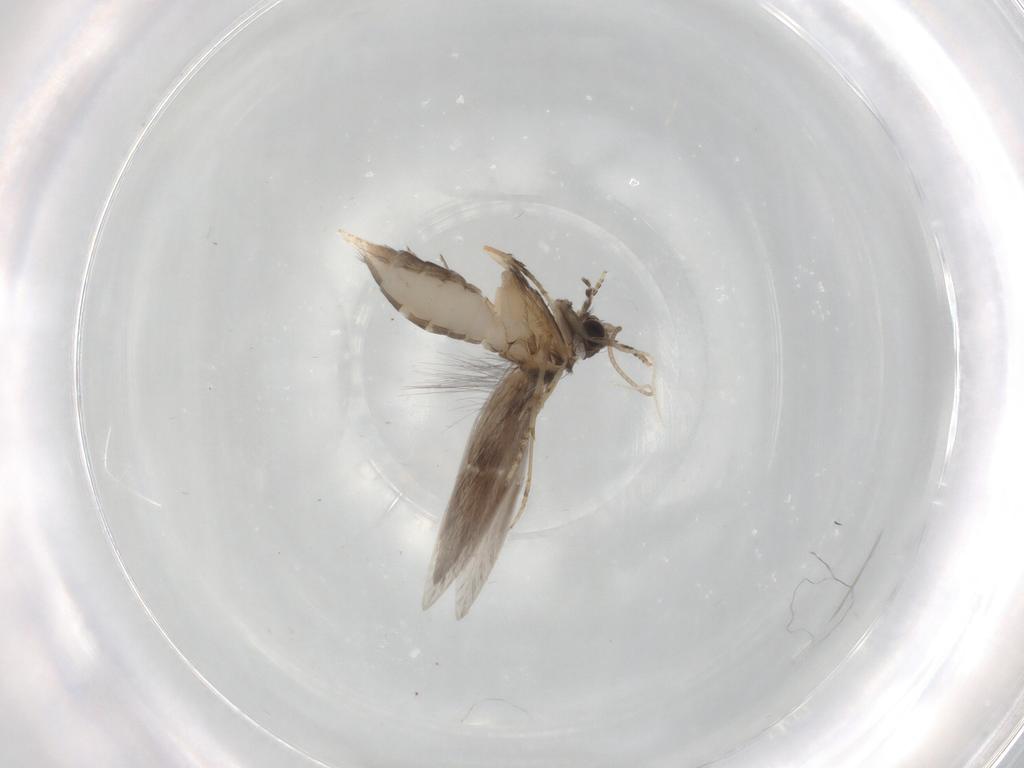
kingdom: Animalia
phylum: Arthropoda
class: Insecta
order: Trichoptera
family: Hydroptilidae
